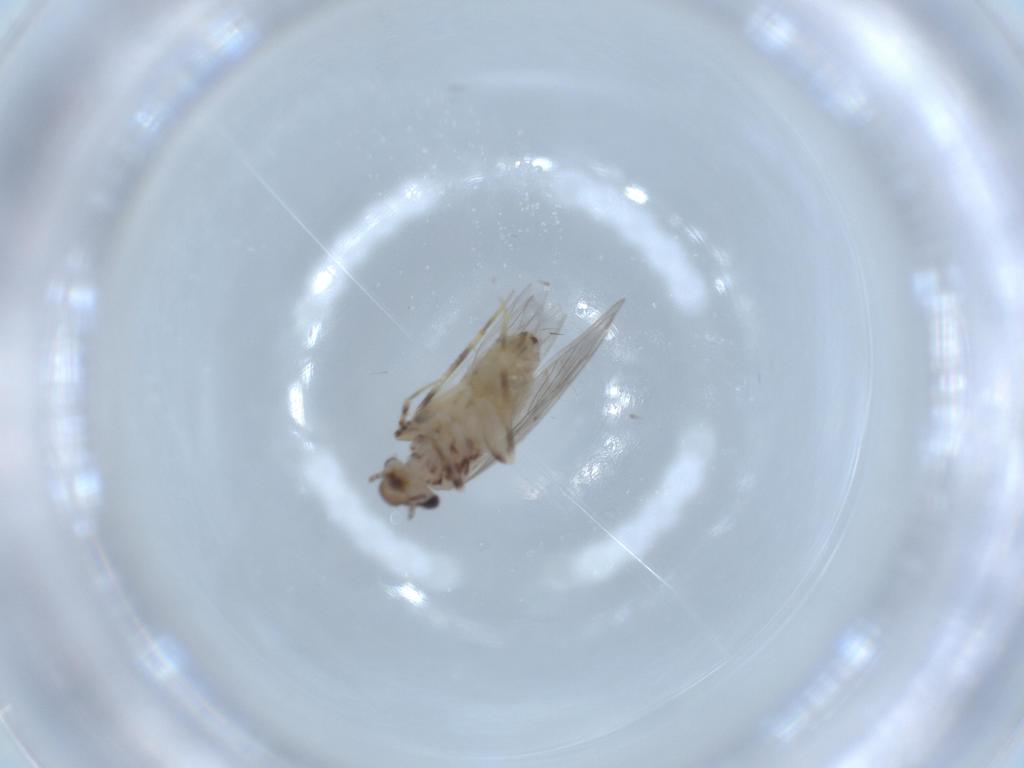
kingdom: Animalia
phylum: Arthropoda
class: Insecta
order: Psocodea
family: Lepidopsocidae
